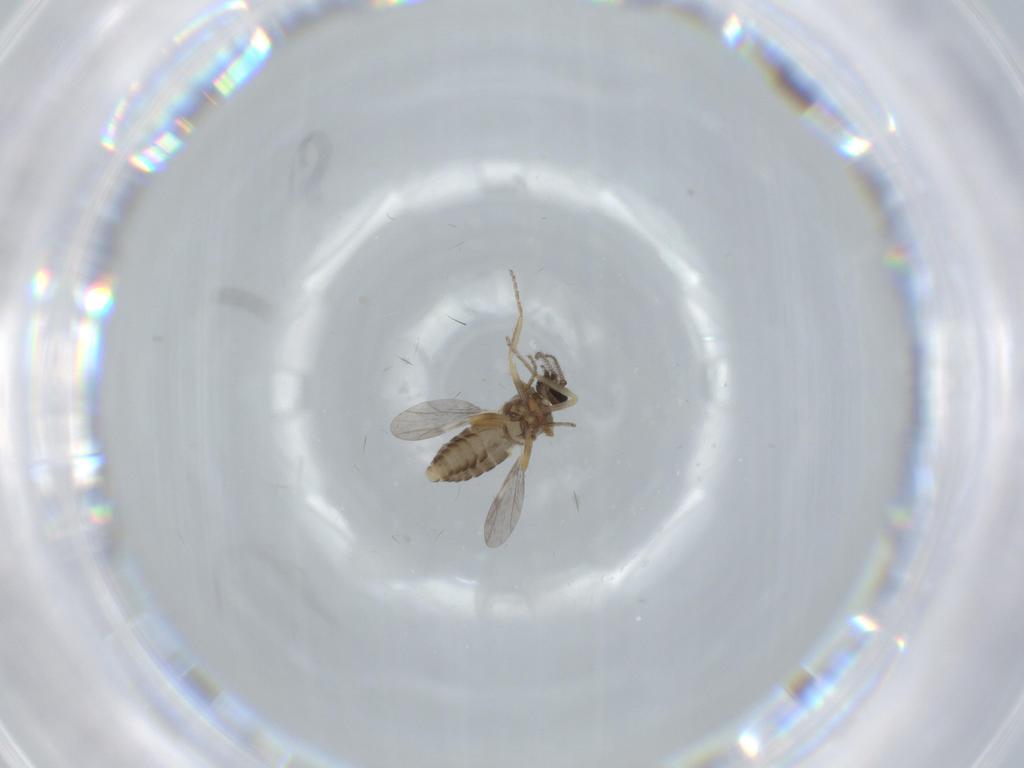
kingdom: Animalia
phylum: Arthropoda
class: Insecta
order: Diptera
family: Ceratopogonidae
